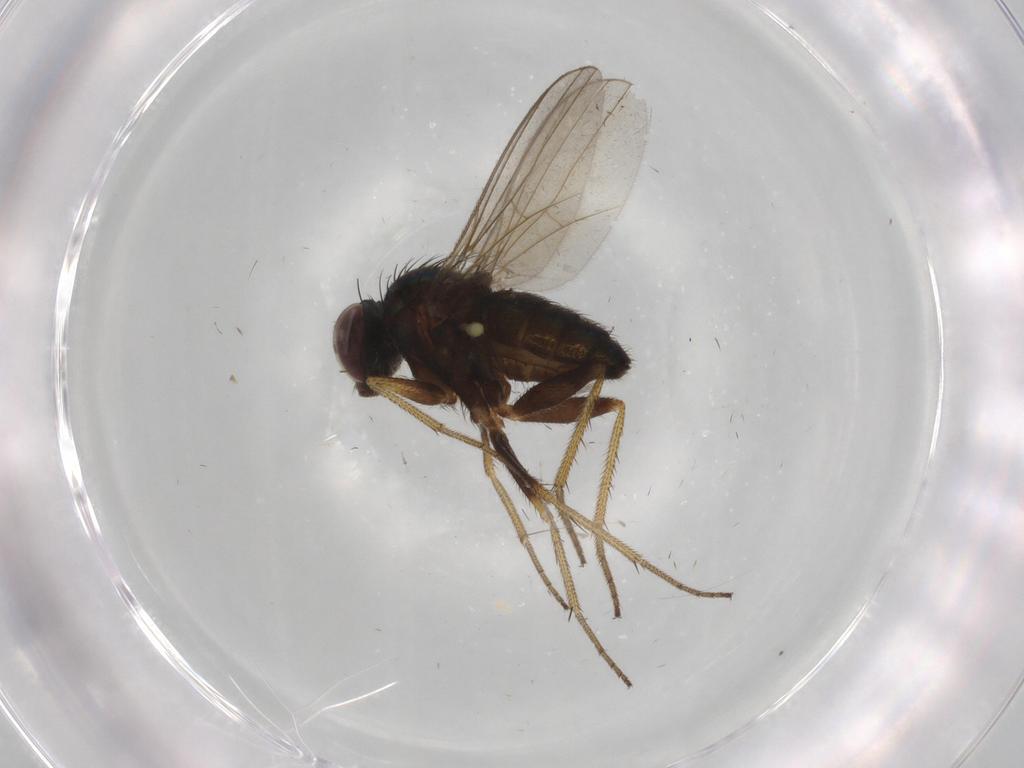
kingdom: Animalia
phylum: Arthropoda
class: Insecta
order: Diptera
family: Cecidomyiidae
